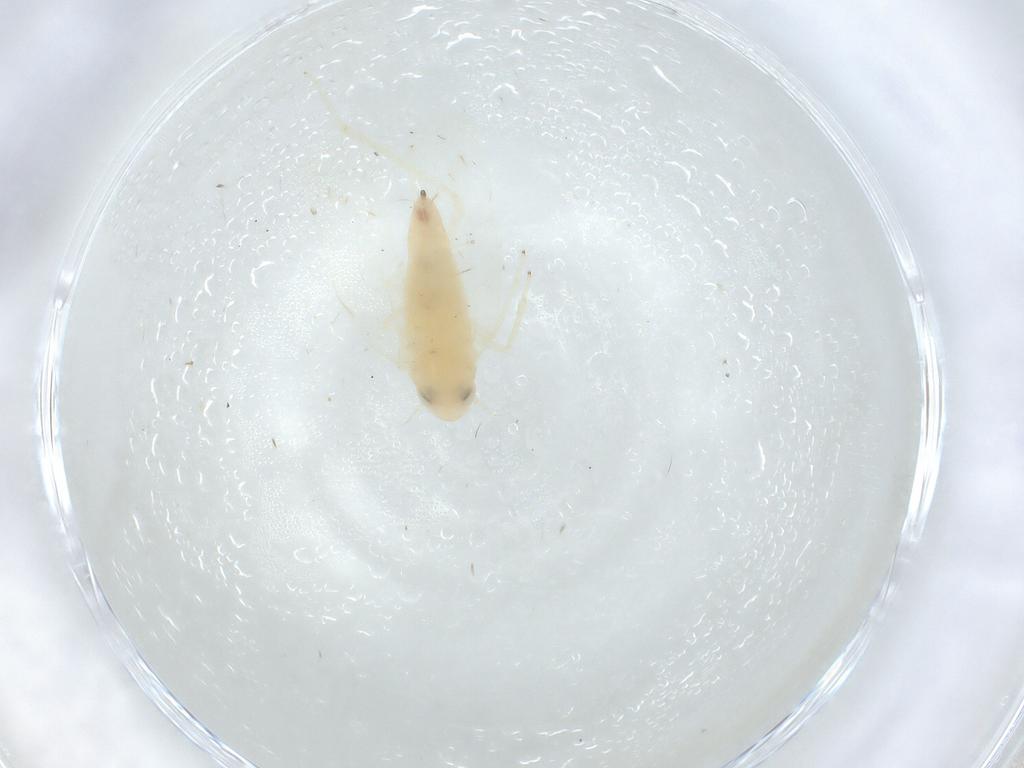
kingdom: Animalia
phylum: Arthropoda
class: Insecta
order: Hemiptera
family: Cicadellidae
